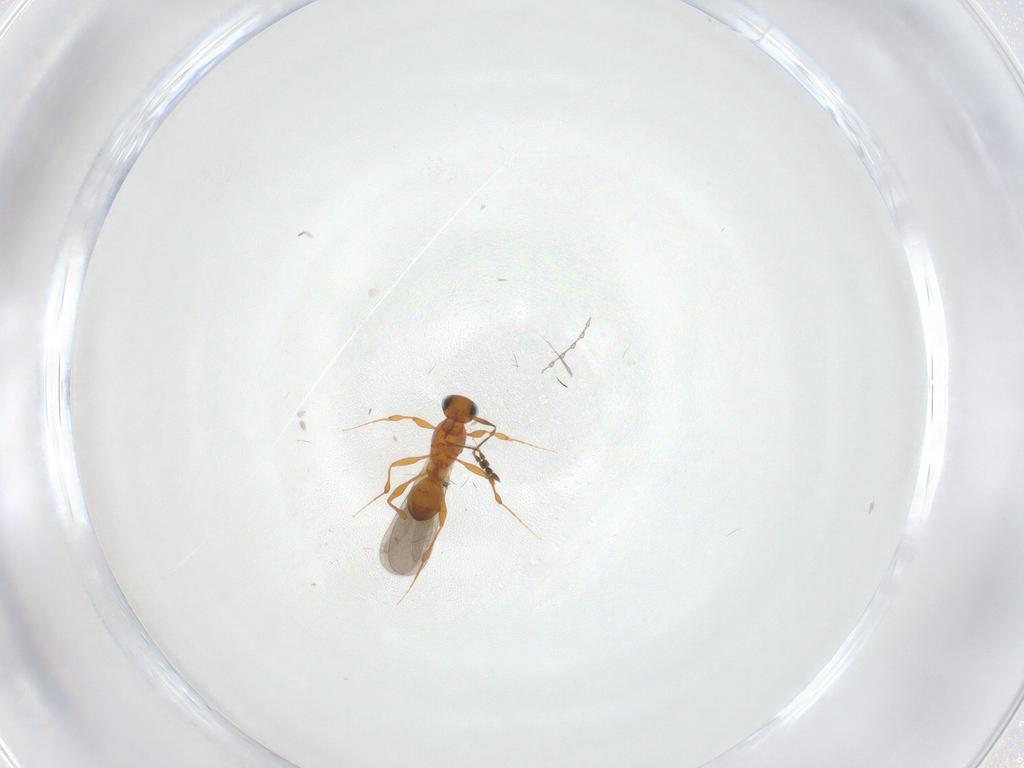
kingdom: Animalia
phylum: Arthropoda
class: Insecta
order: Hymenoptera
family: Platygastridae
